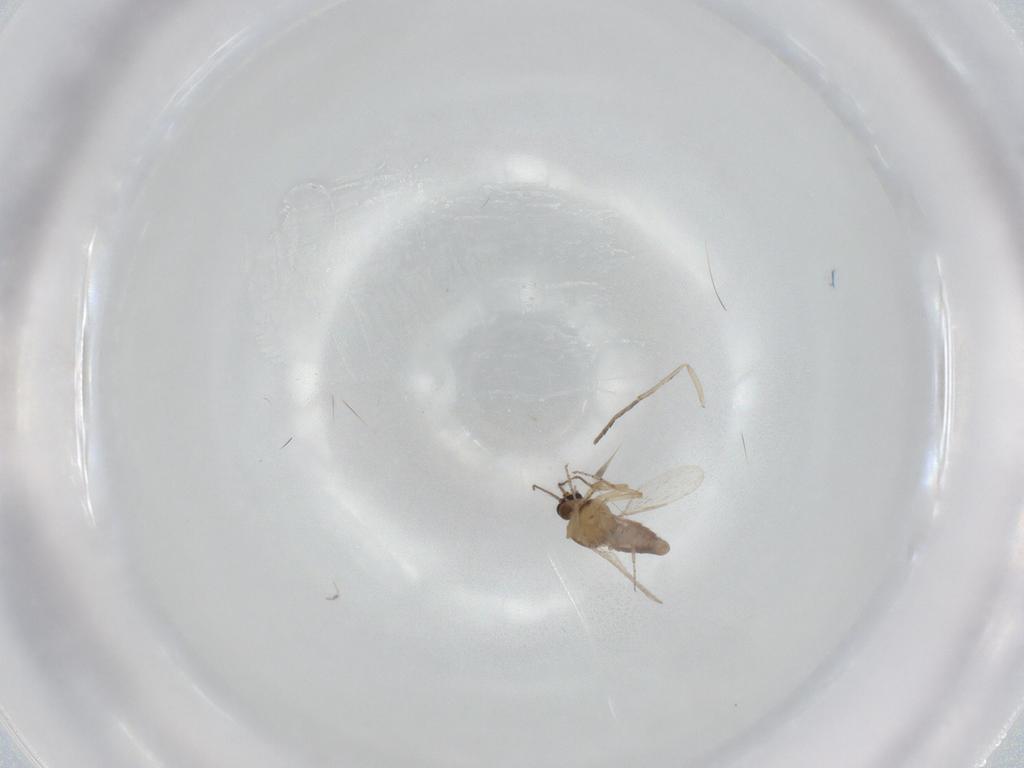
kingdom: Animalia
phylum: Arthropoda
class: Insecta
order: Diptera
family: Ceratopogonidae
